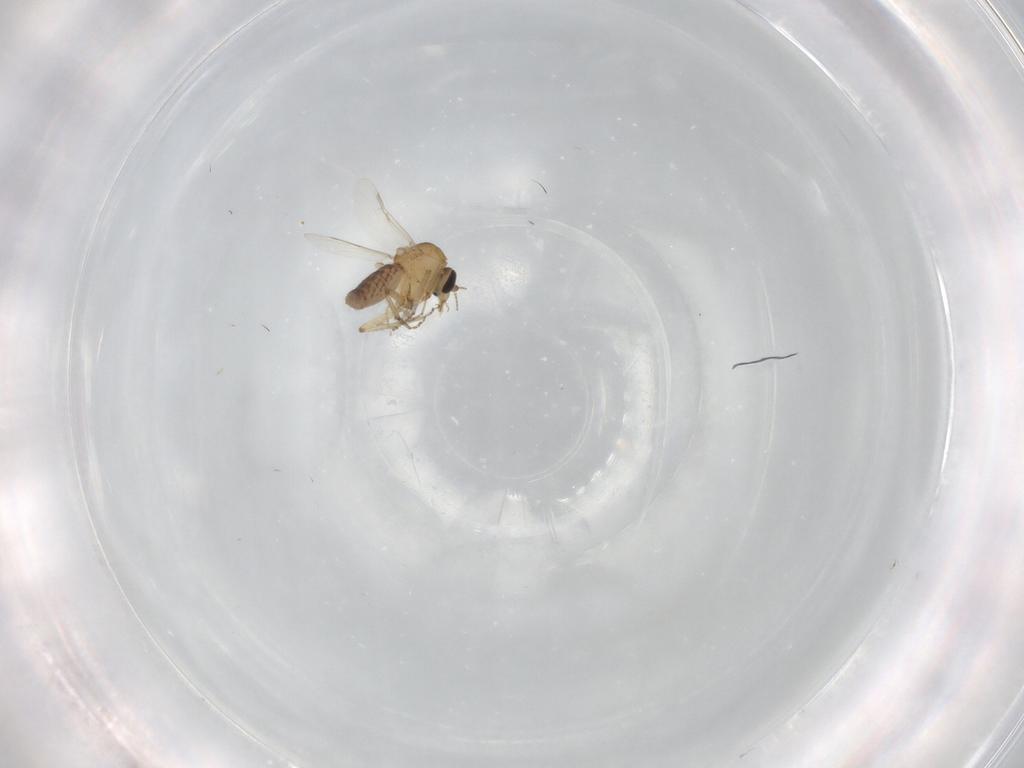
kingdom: Animalia
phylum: Arthropoda
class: Insecta
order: Diptera
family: Ceratopogonidae
